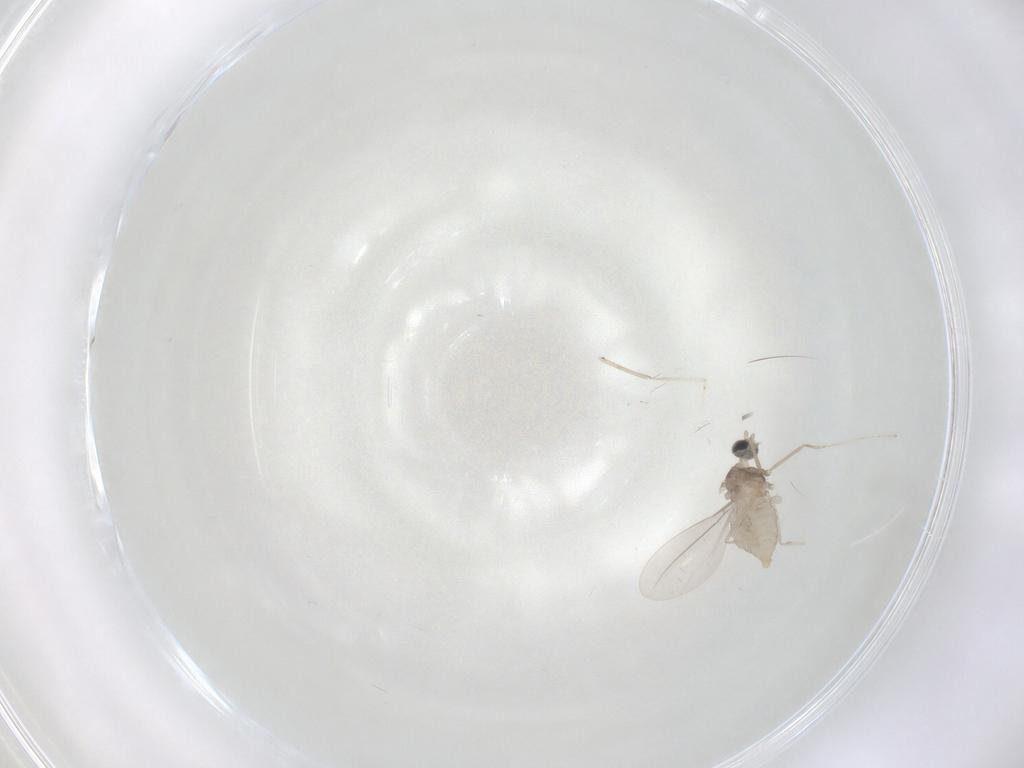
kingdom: Animalia
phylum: Arthropoda
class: Insecta
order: Diptera
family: Cecidomyiidae
